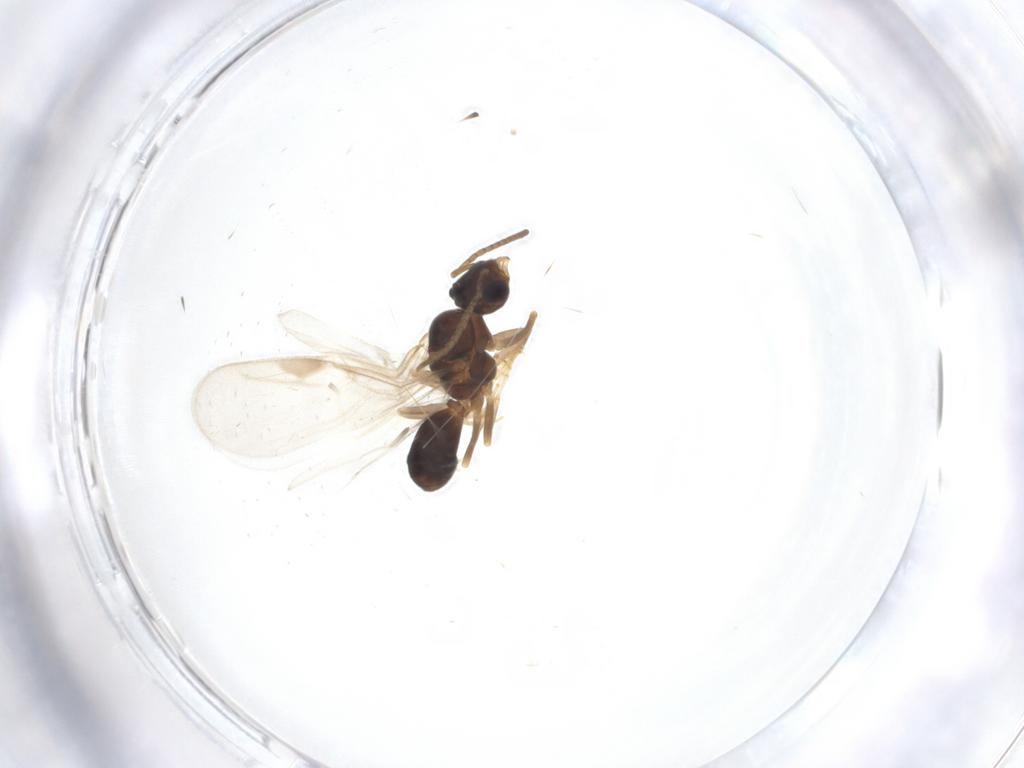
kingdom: Animalia
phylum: Arthropoda
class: Insecta
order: Hymenoptera
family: Formicidae
